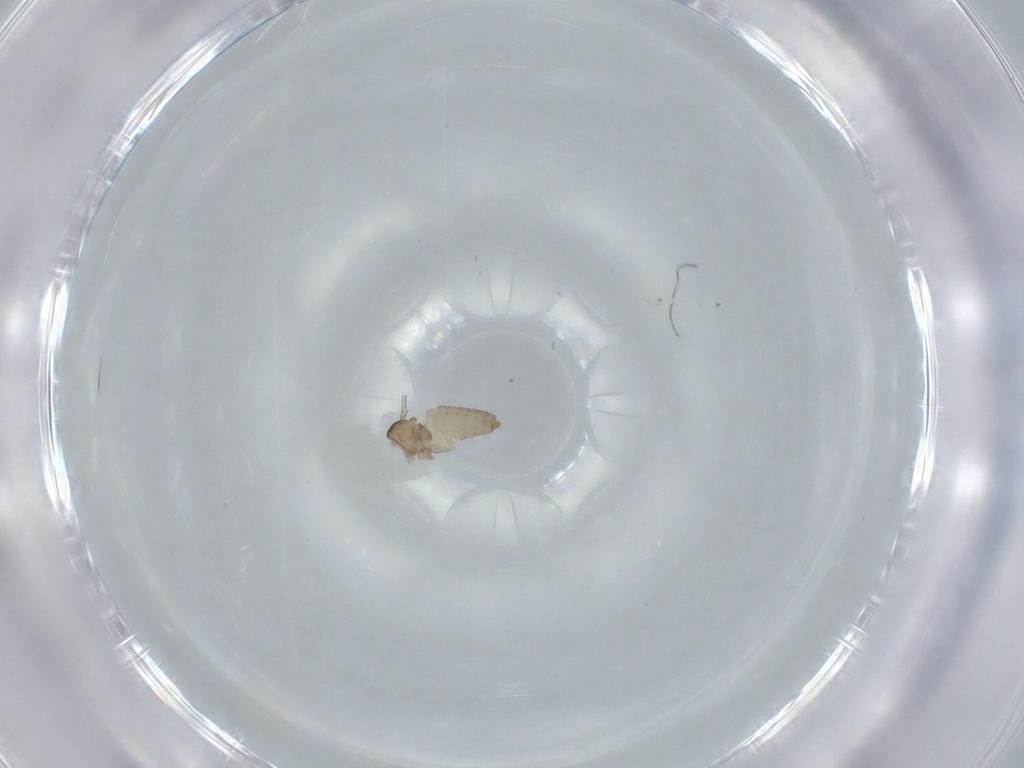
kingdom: Animalia
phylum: Arthropoda
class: Insecta
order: Diptera
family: Cecidomyiidae
